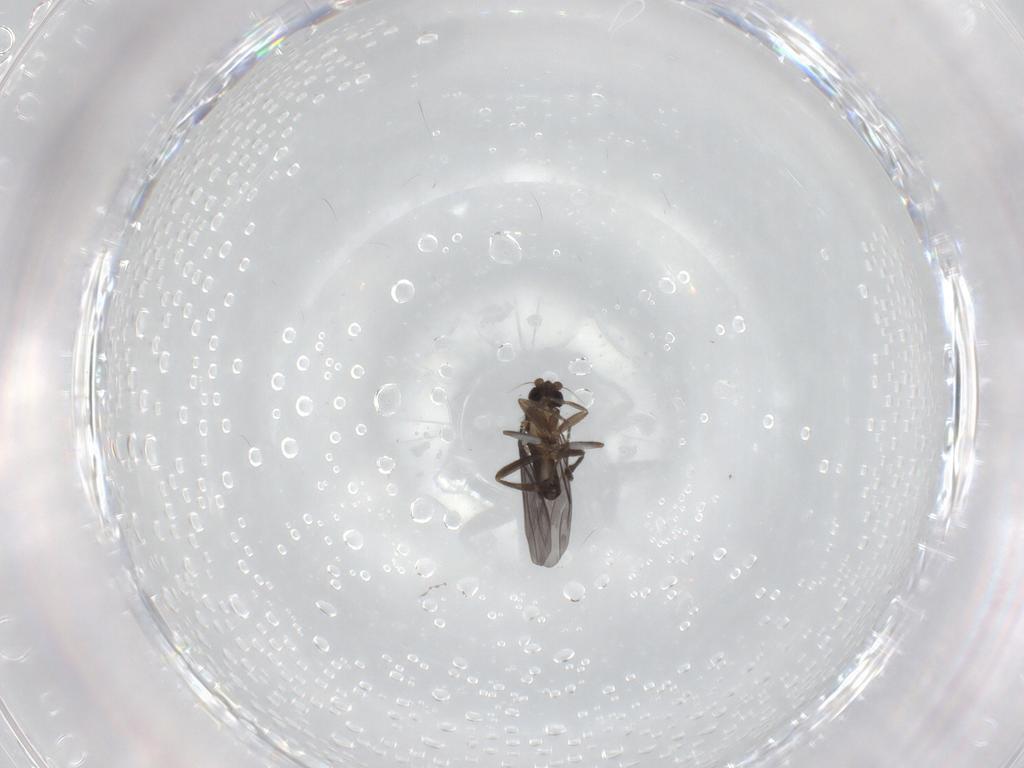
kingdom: Animalia
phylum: Arthropoda
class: Insecta
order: Diptera
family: Cecidomyiidae
